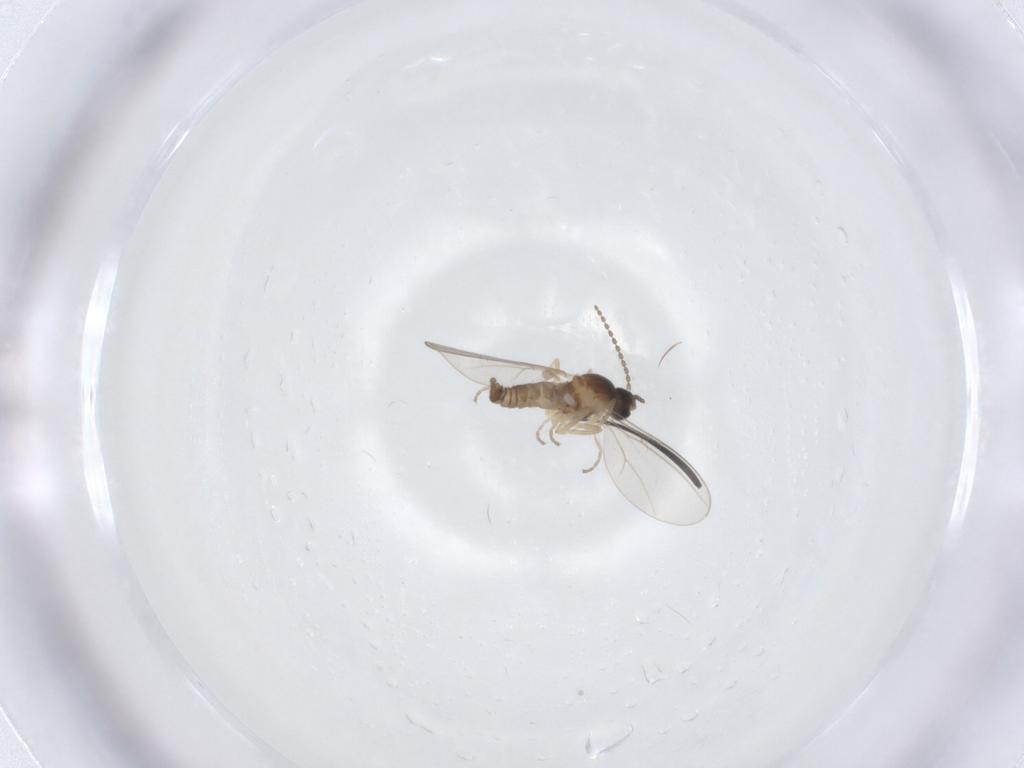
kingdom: Animalia
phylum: Arthropoda
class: Insecta
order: Diptera
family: Cecidomyiidae
